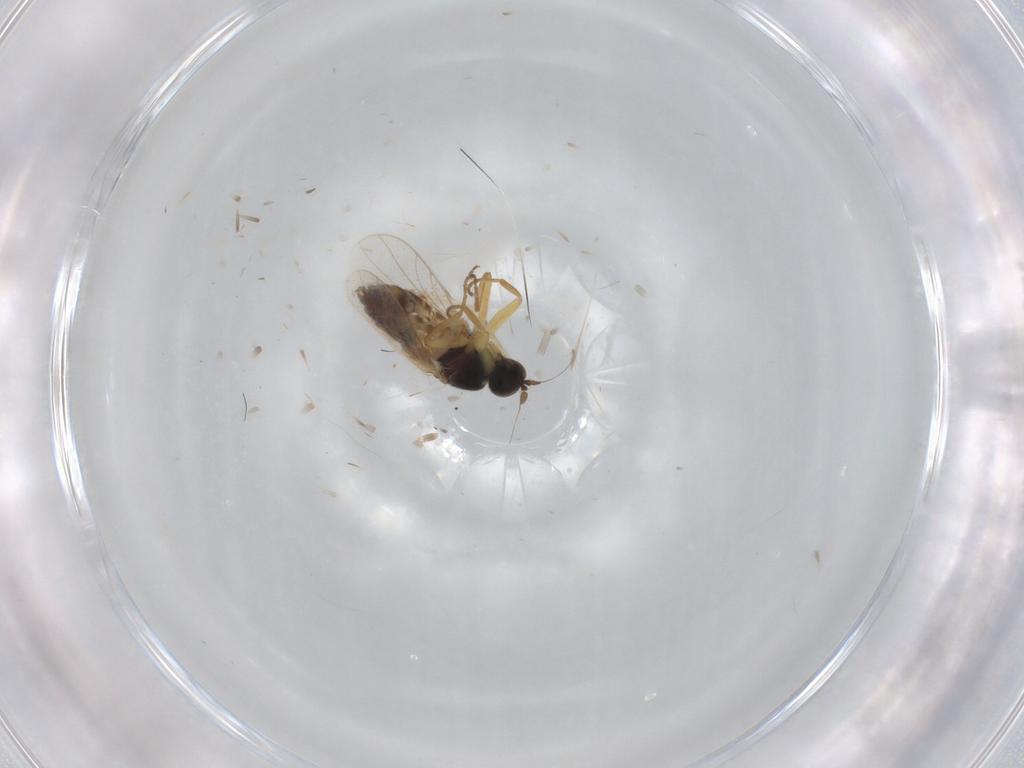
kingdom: Animalia
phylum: Arthropoda
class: Insecta
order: Diptera
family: Hybotidae
